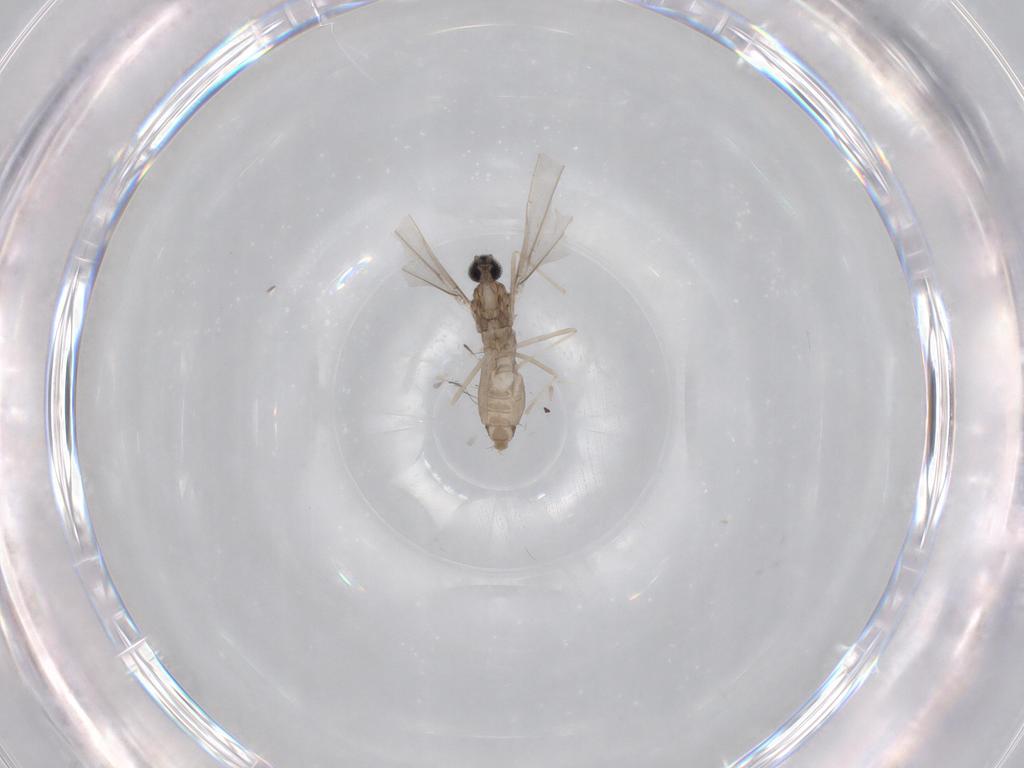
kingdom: Animalia
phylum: Arthropoda
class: Insecta
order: Diptera
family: Cecidomyiidae
